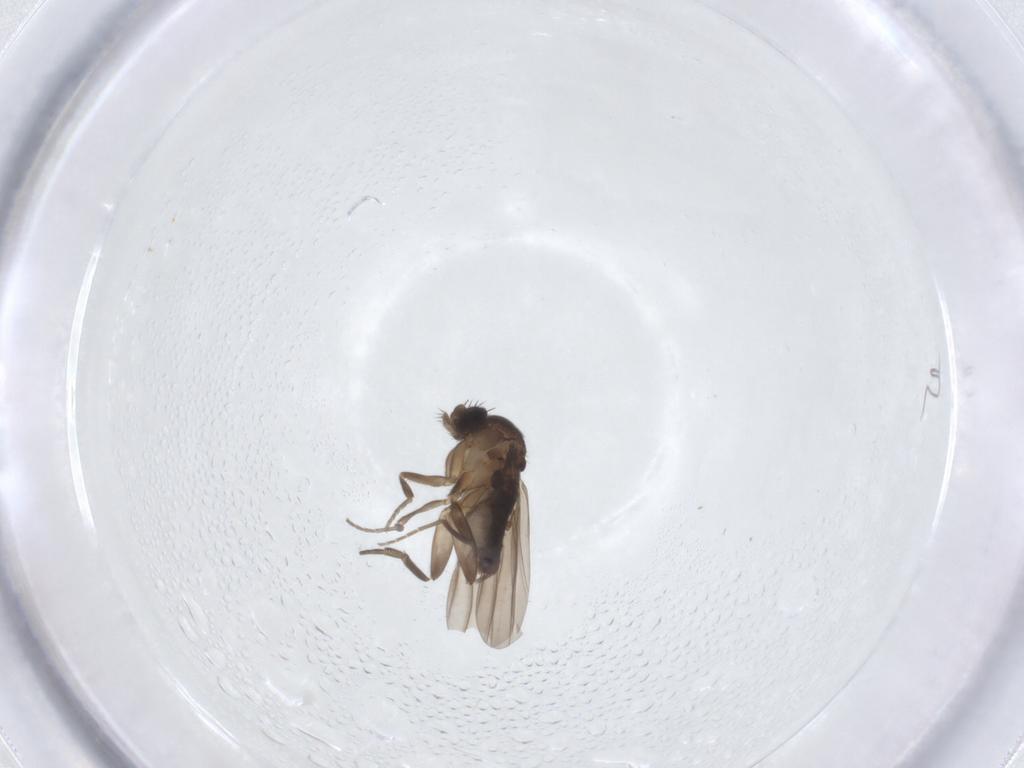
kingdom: Animalia
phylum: Arthropoda
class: Insecta
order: Diptera
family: Phoridae
